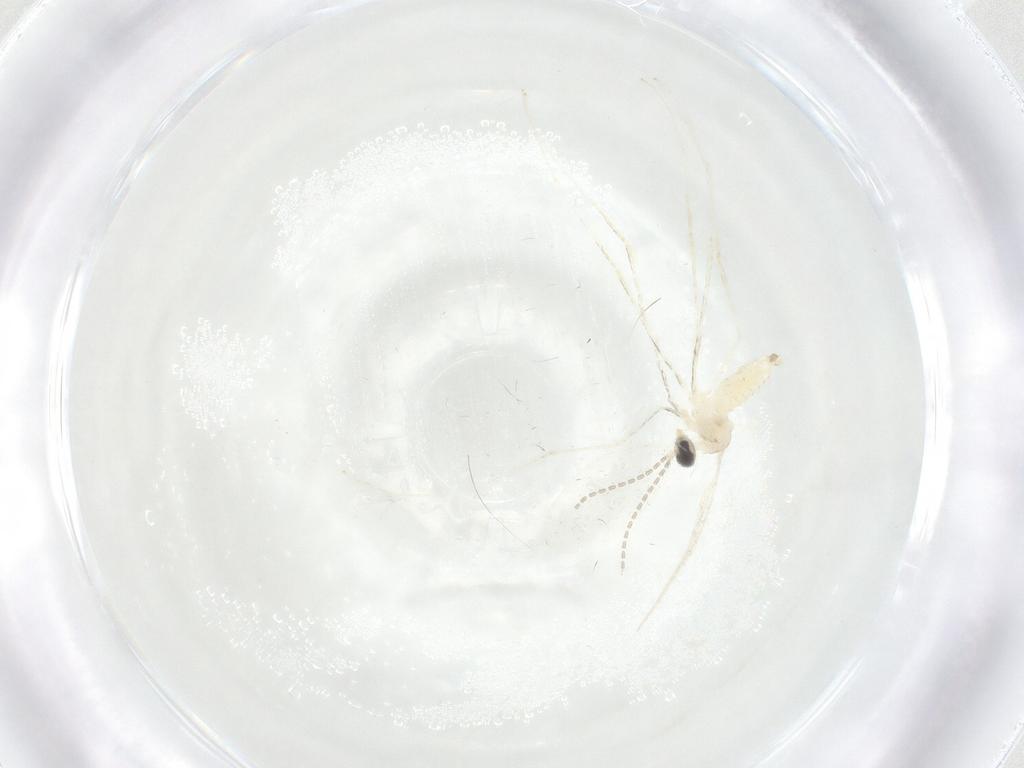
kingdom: Animalia
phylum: Arthropoda
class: Insecta
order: Diptera
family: Cecidomyiidae
